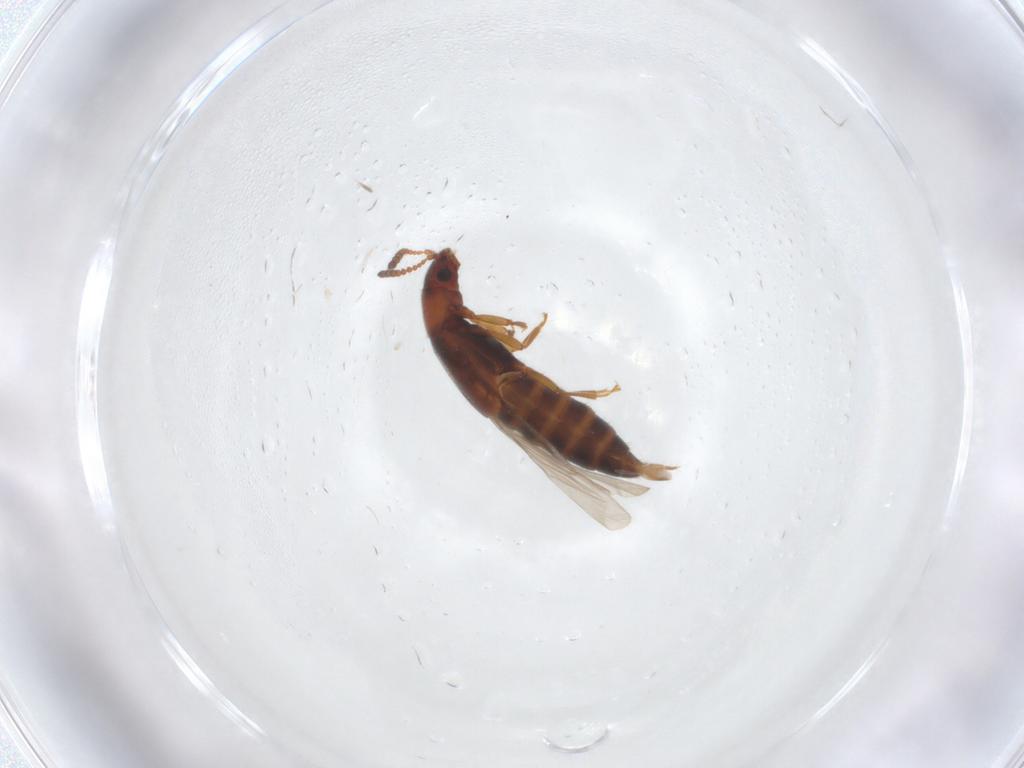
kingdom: Animalia
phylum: Arthropoda
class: Insecta
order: Coleoptera
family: Staphylinidae
